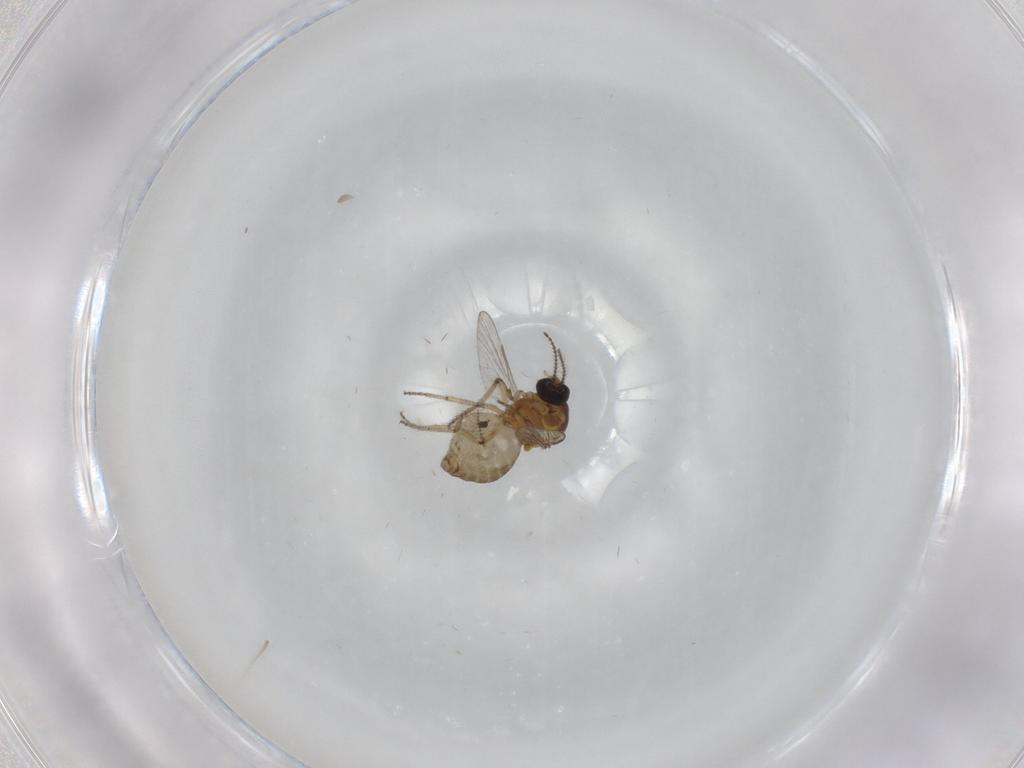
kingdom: Animalia
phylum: Arthropoda
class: Insecta
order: Diptera
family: Ceratopogonidae
